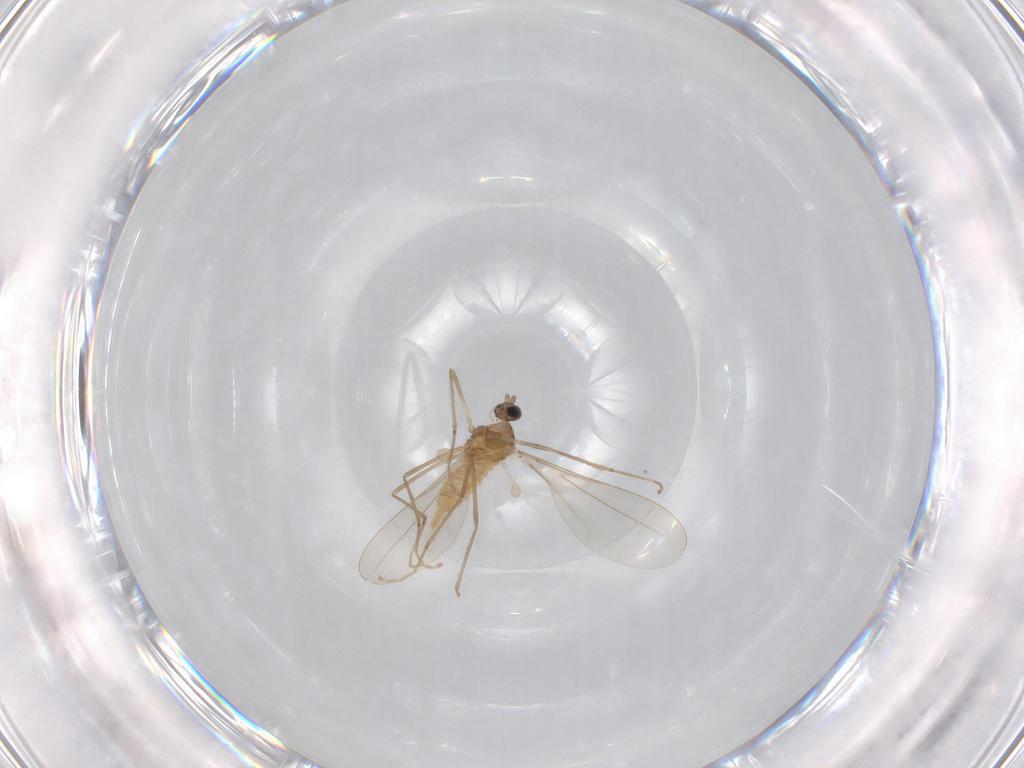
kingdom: Animalia
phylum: Arthropoda
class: Insecta
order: Diptera
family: Cecidomyiidae
